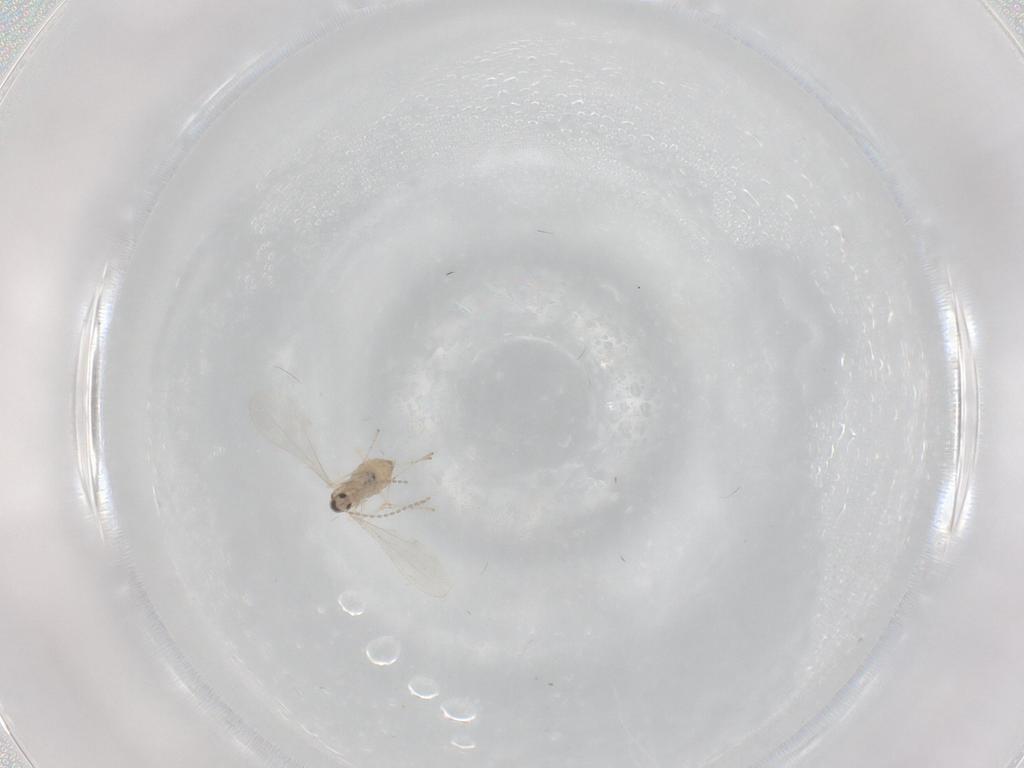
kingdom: Animalia
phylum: Arthropoda
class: Insecta
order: Diptera
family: Cecidomyiidae
